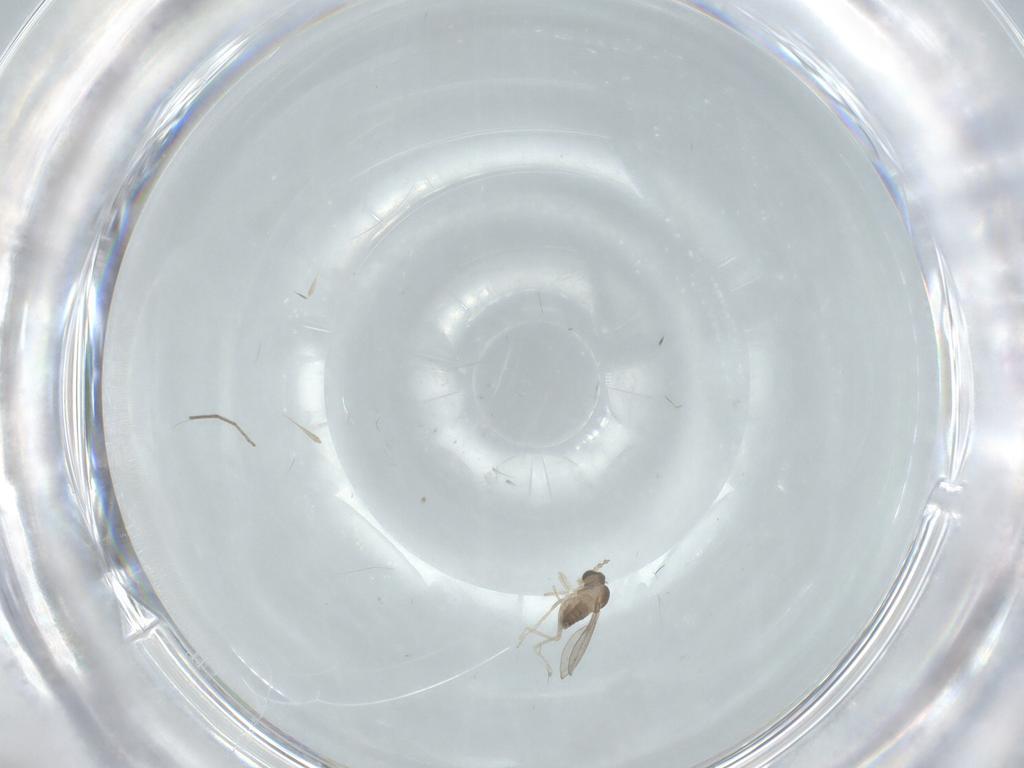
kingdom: Animalia
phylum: Arthropoda
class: Insecta
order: Diptera
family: Cecidomyiidae
